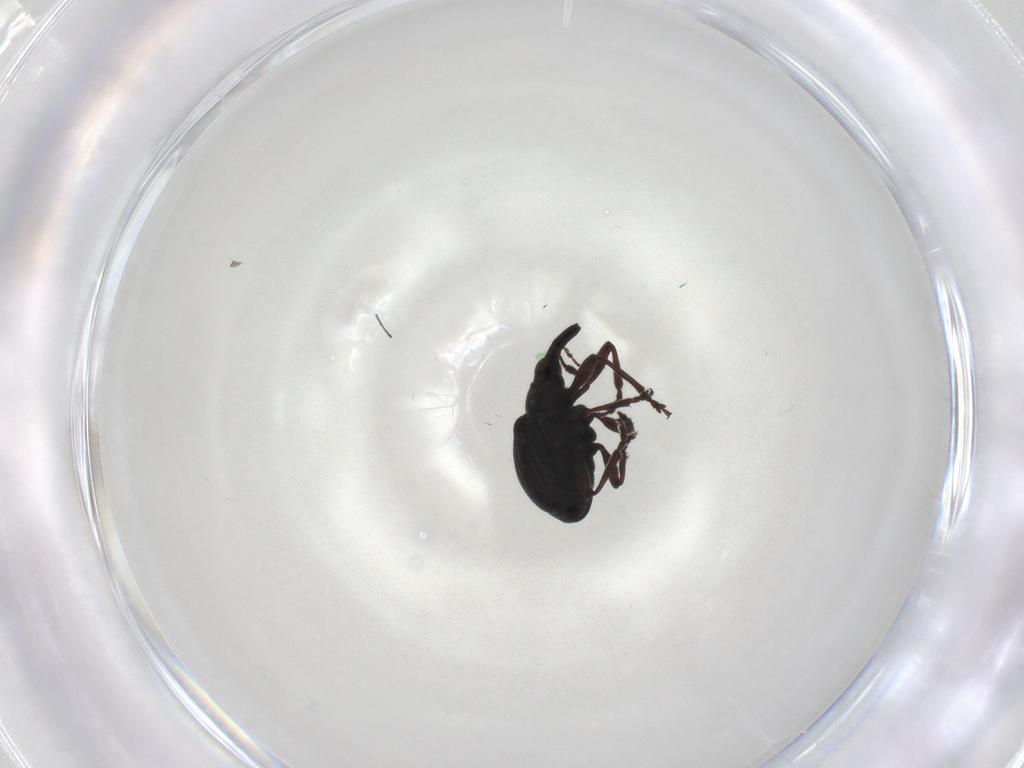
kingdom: Animalia
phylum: Arthropoda
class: Insecta
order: Coleoptera
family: Brentidae
